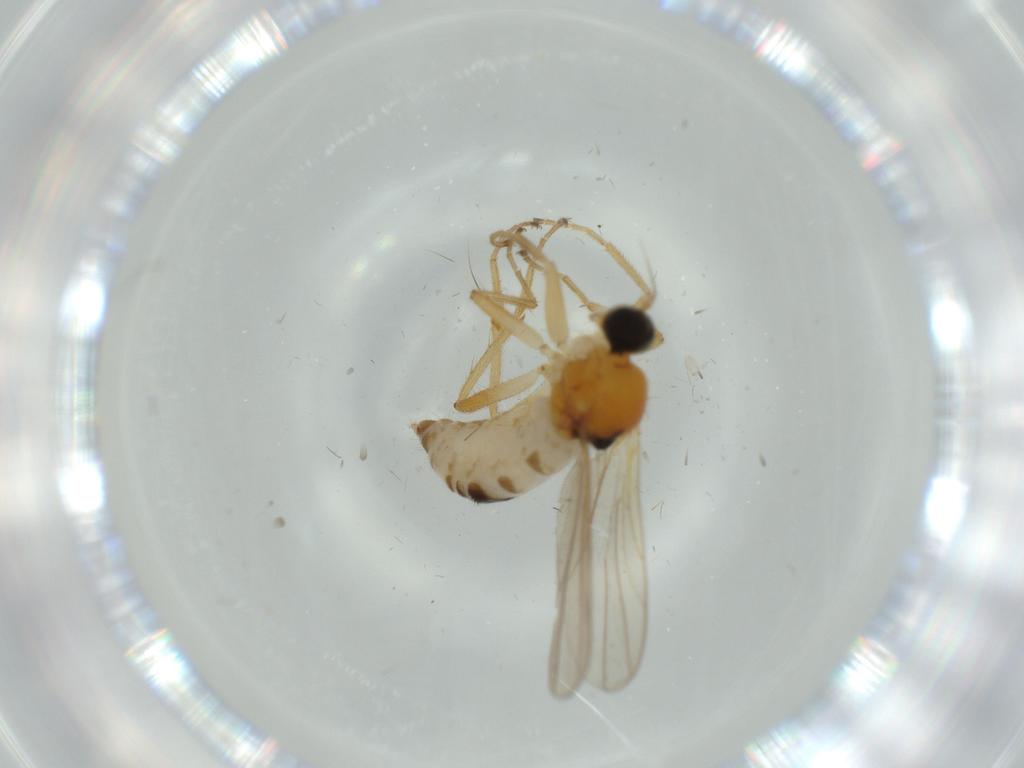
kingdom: Animalia
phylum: Arthropoda
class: Insecta
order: Diptera
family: Hybotidae
